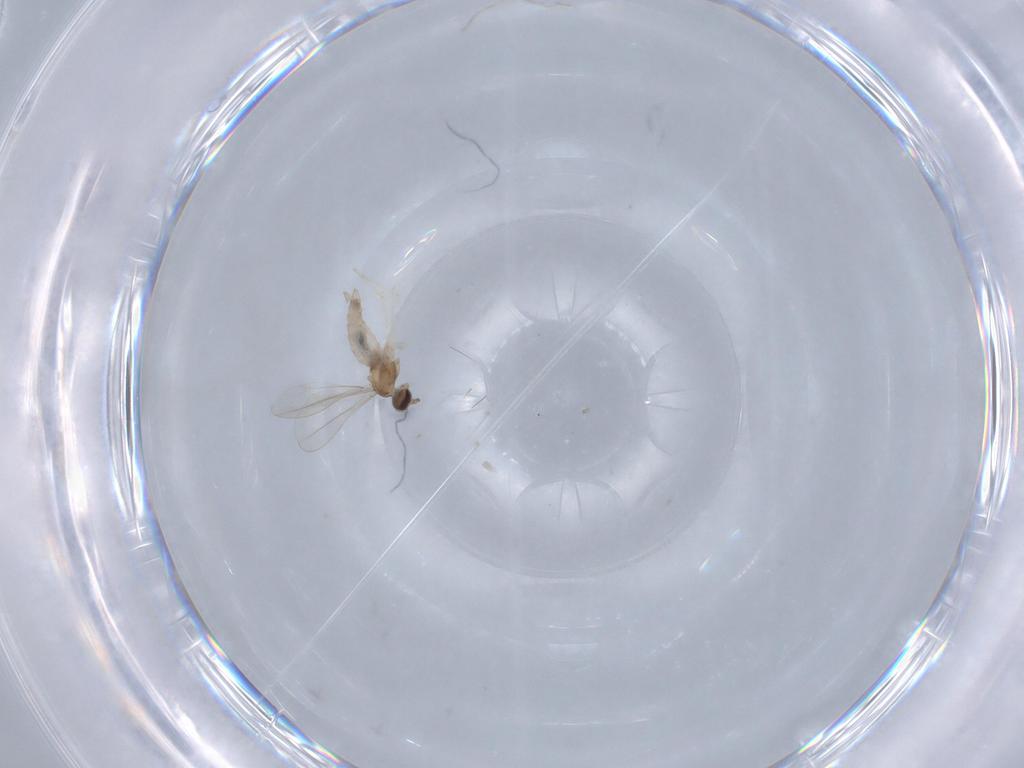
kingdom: Animalia
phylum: Arthropoda
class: Insecta
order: Diptera
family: Cecidomyiidae
